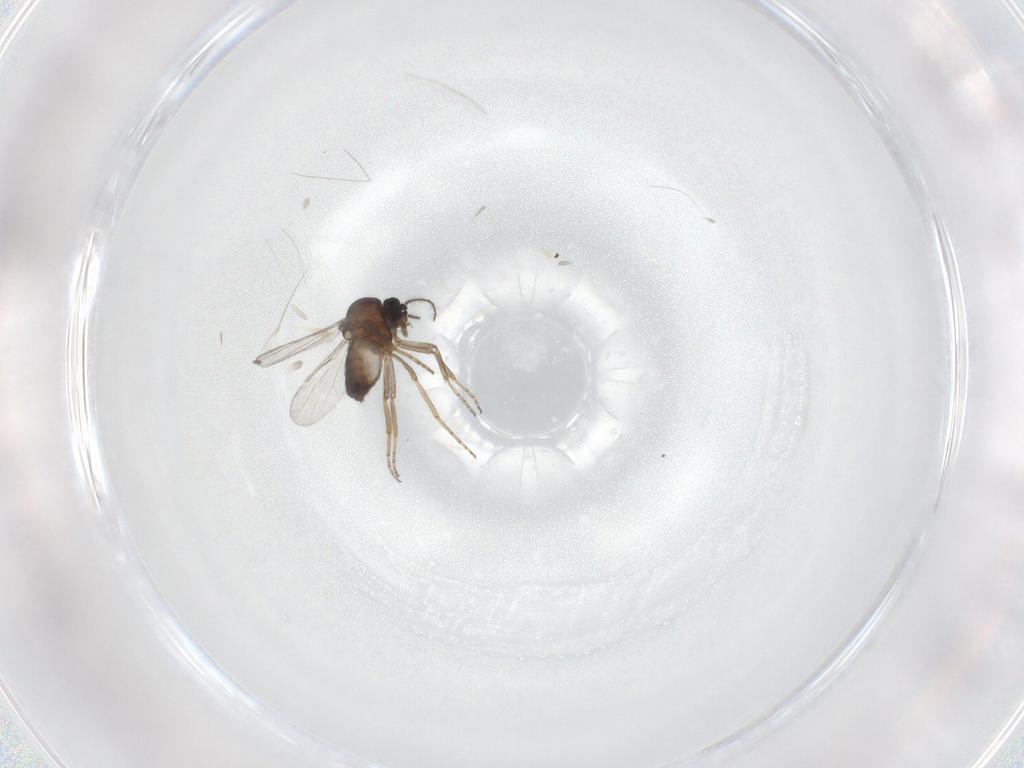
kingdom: Animalia
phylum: Arthropoda
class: Insecta
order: Diptera
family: Ceratopogonidae
